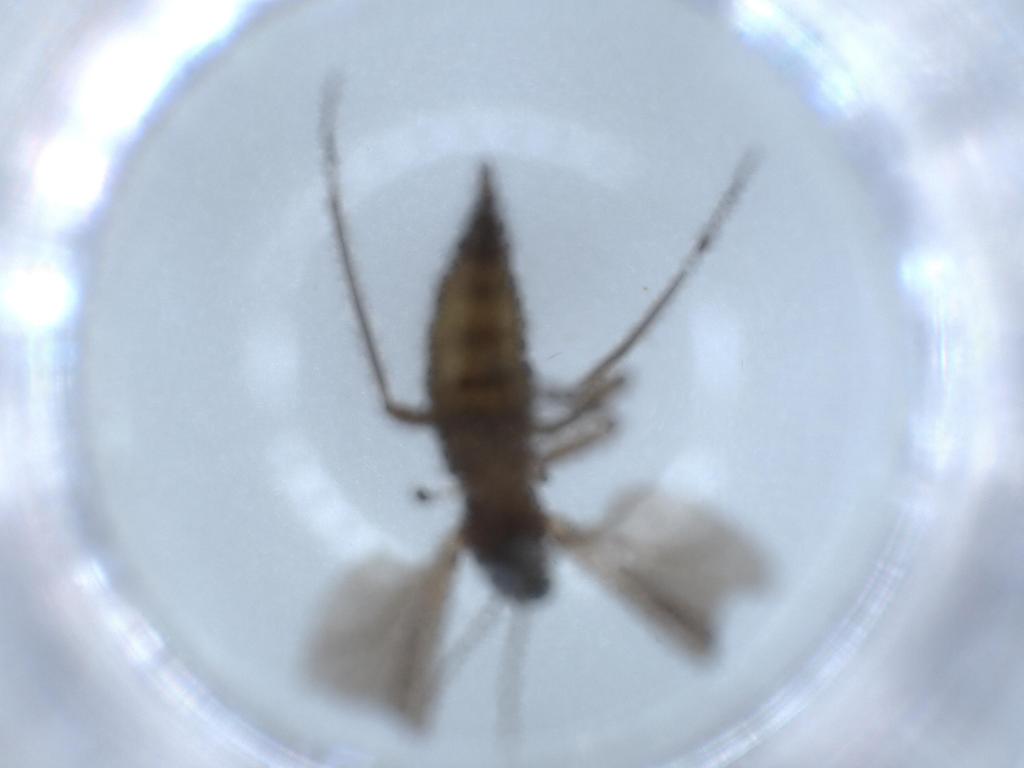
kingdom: Animalia
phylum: Arthropoda
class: Insecta
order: Diptera
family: Sciaridae
